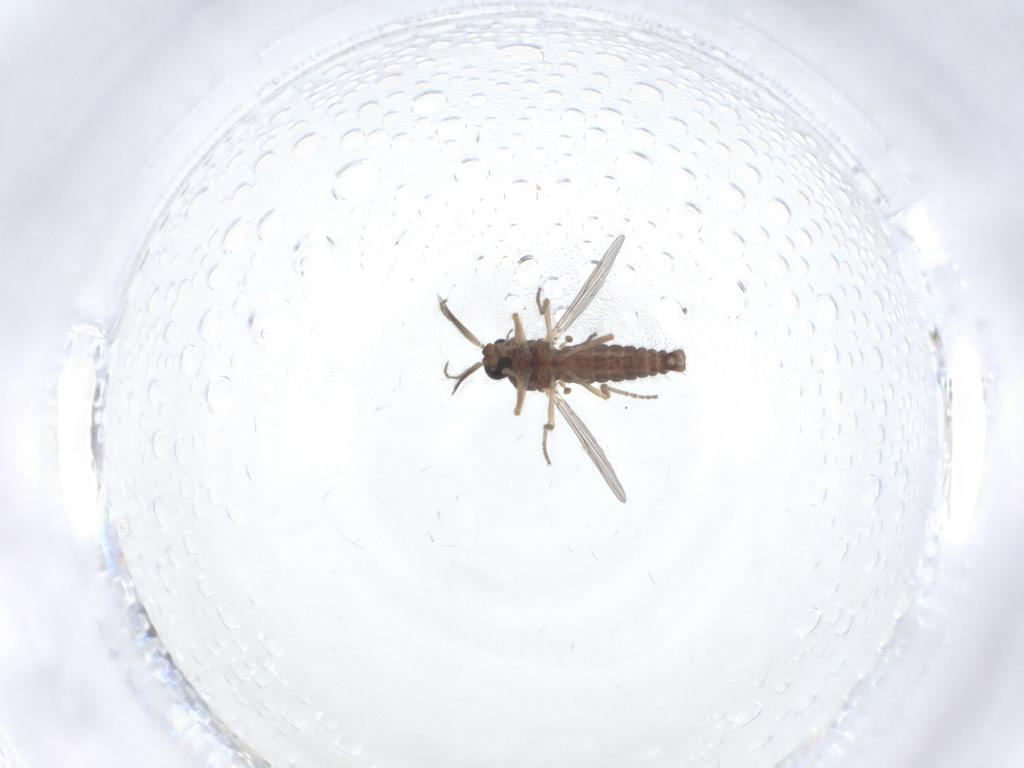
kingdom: Animalia
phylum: Arthropoda
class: Insecta
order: Diptera
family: Ceratopogonidae
